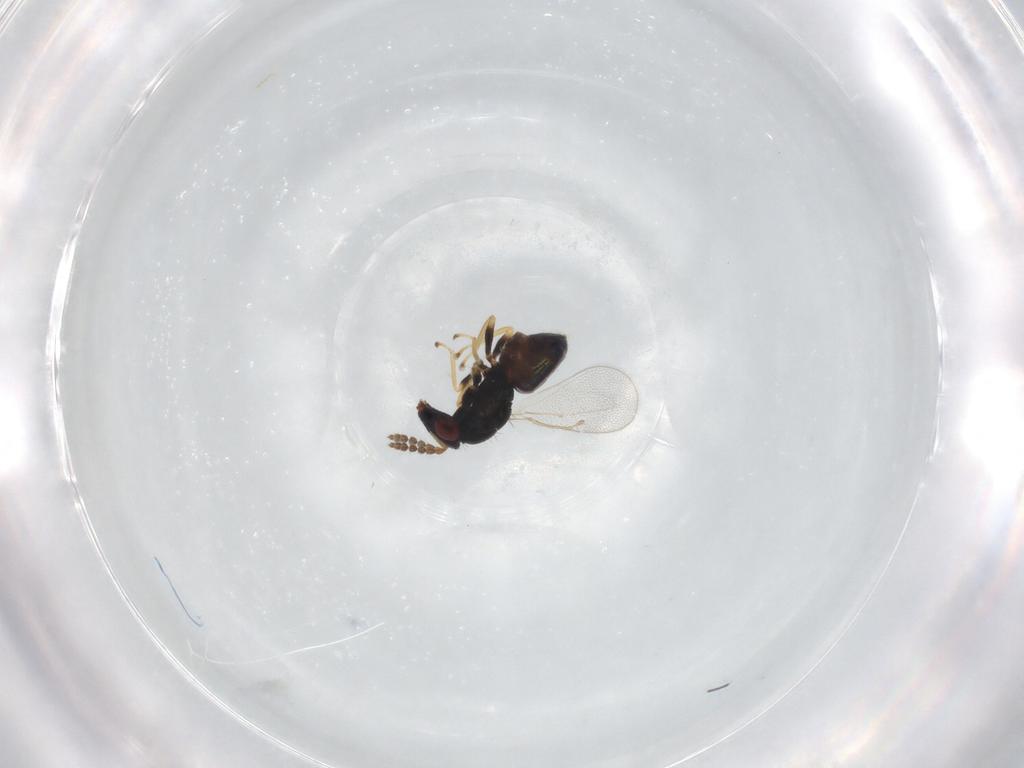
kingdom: Animalia
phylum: Arthropoda
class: Insecta
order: Hymenoptera
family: Eulophidae
